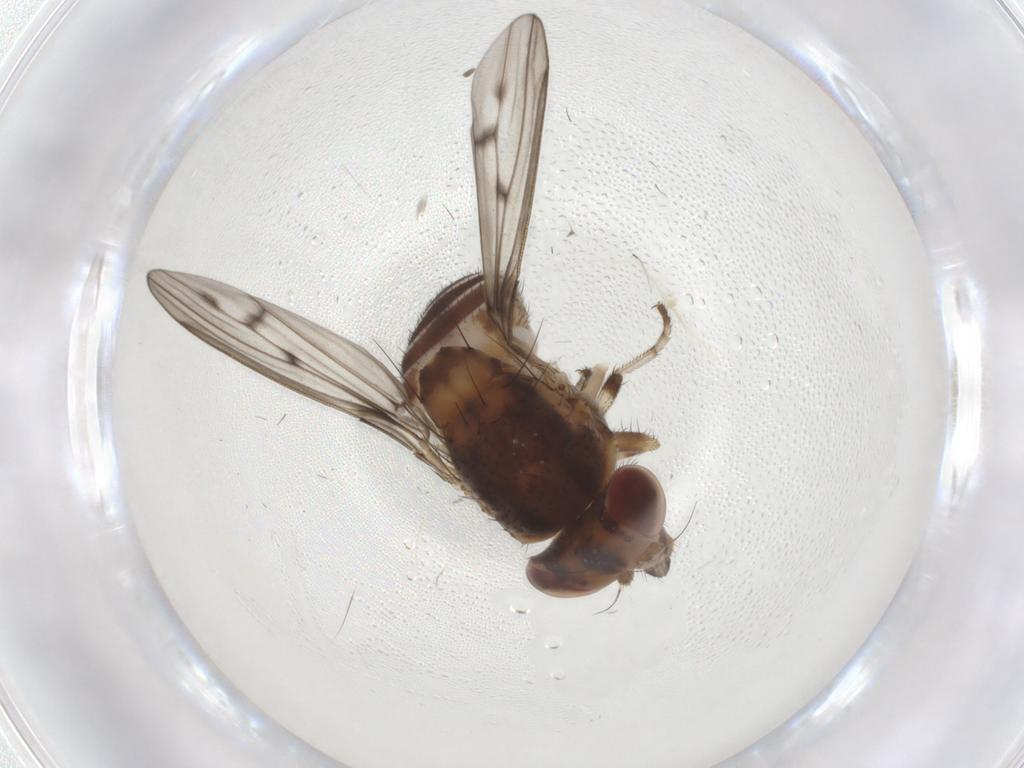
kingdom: Animalia
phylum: Arthropoda
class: Insecta
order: Diptera
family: Drosophilidae
